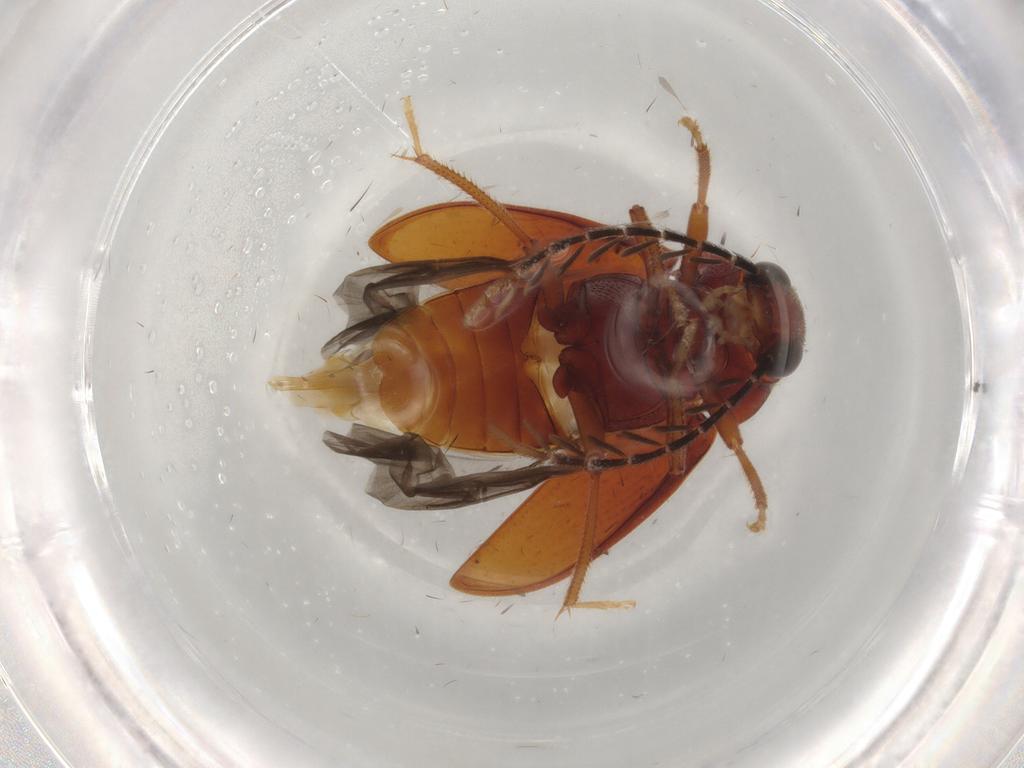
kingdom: Animalia
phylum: Arthropoda
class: Insecta
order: Coleoptera
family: Ptilodactylidae
